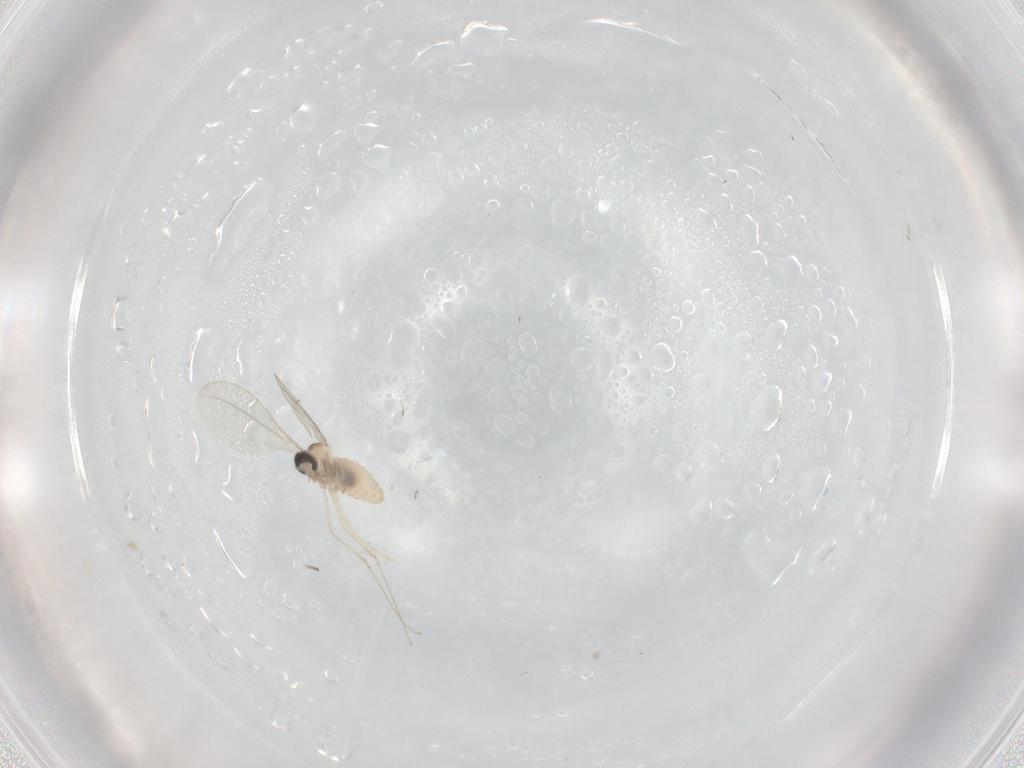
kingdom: Animalia
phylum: Arthropoda
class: Insecta
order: Diptera
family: Cecidomyiidae
